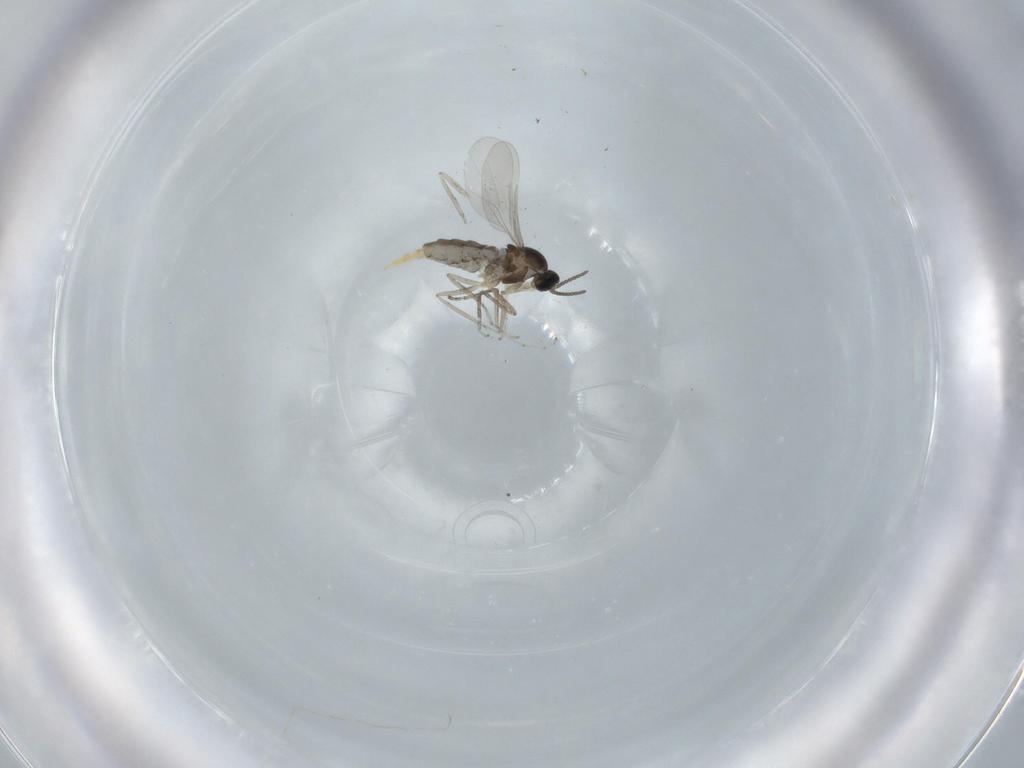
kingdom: Animalia
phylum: Arthropoda
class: Insecta
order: Diptera
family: Cecidomyiidae
